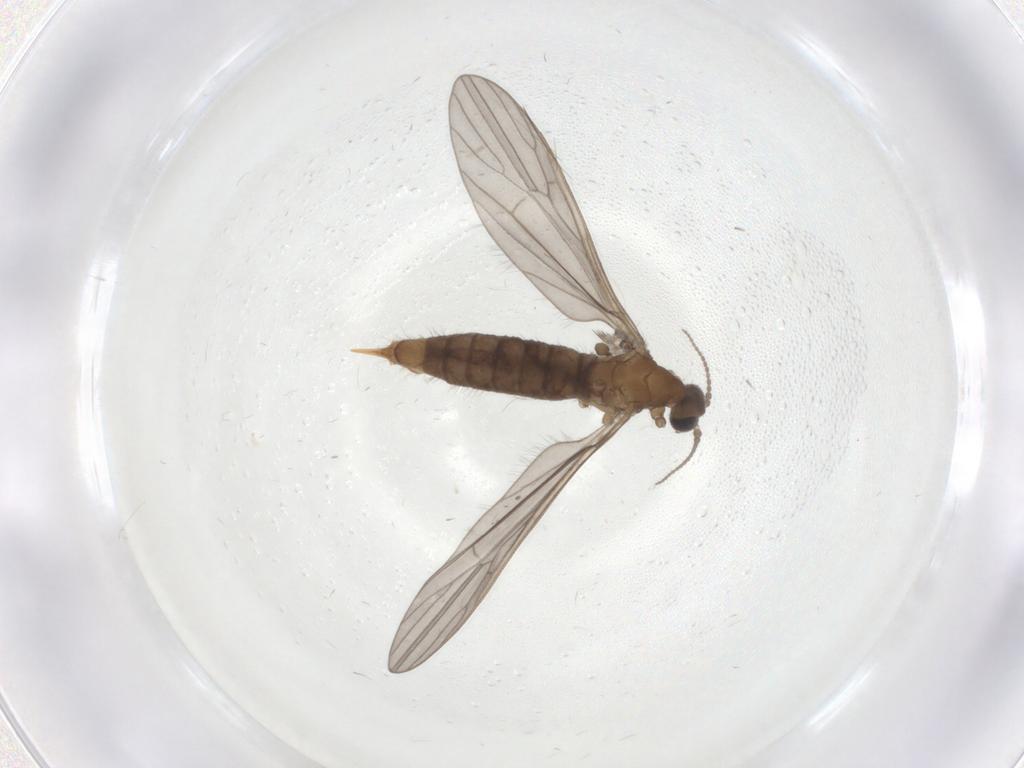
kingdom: Animalia
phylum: Arthropoda
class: Insecta
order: Diptera
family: Limoniidae
